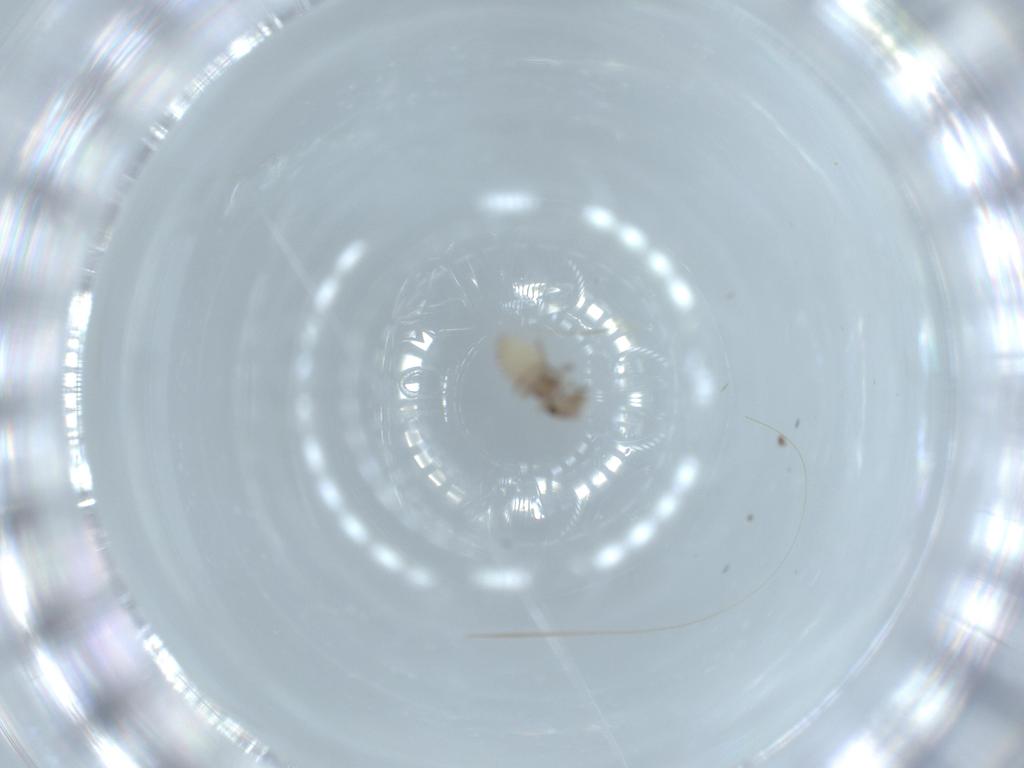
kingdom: Animalia
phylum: Arthropoda
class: Insecta
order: Psocodea
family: Lachesillidae
